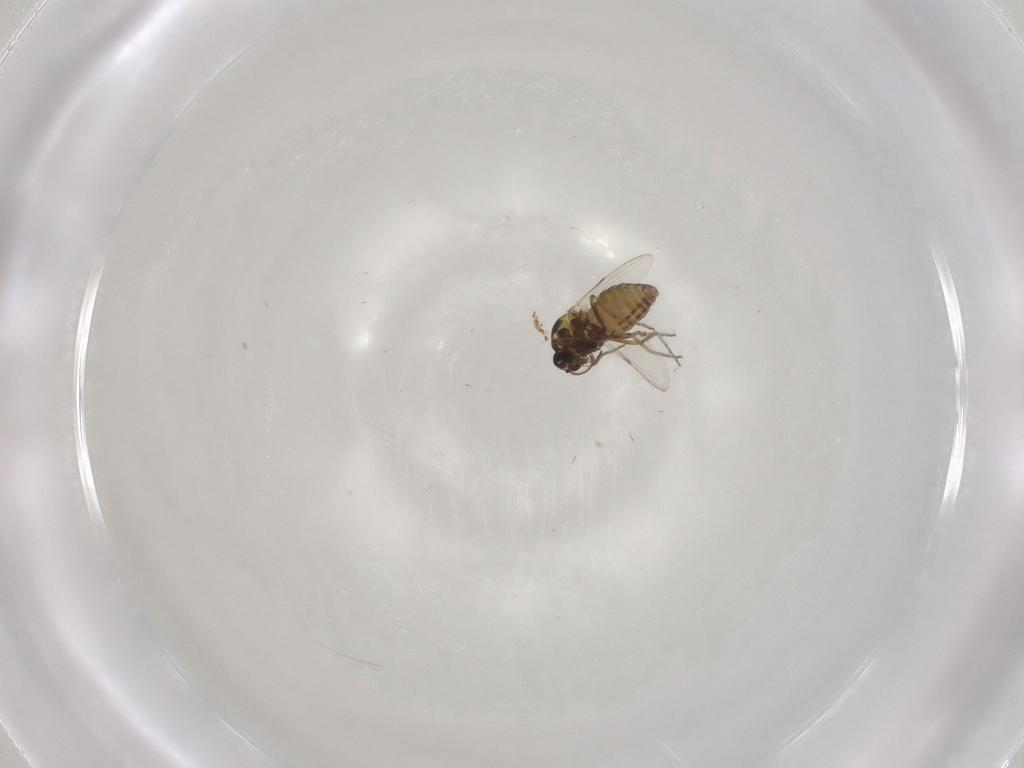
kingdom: Animalia
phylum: Arthropoda
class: Insecta
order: Diptera
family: Ceratopogonidae
